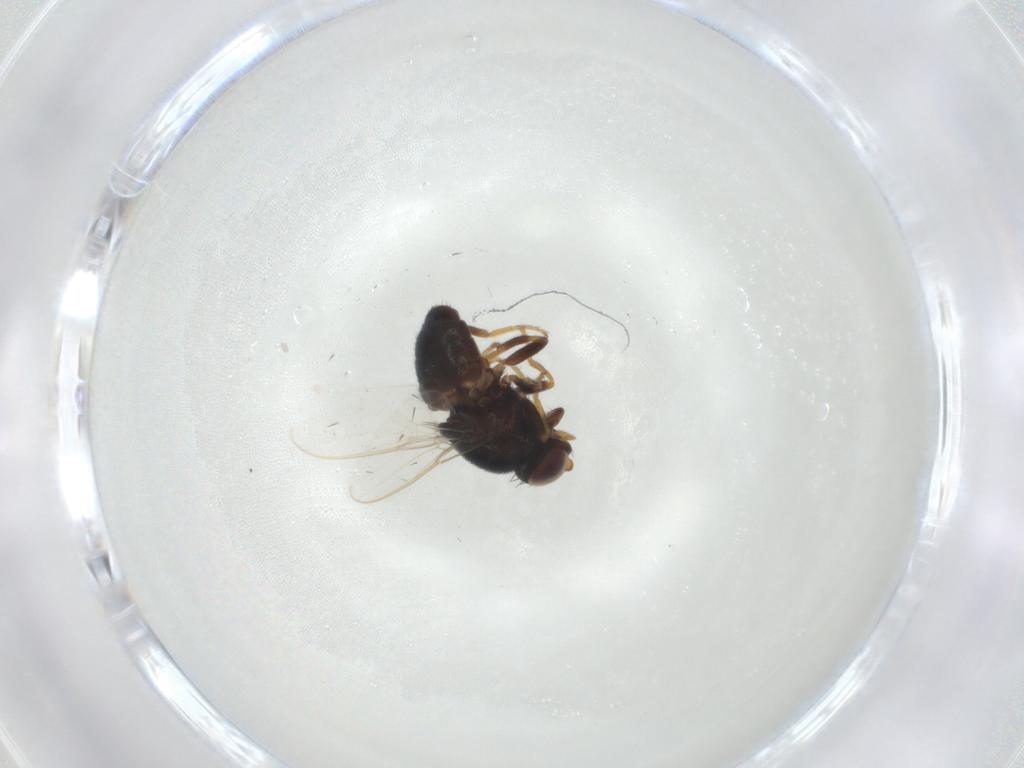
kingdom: Animalia
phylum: Arthropoda
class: Insecta
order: Diptera
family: Chloropidae
